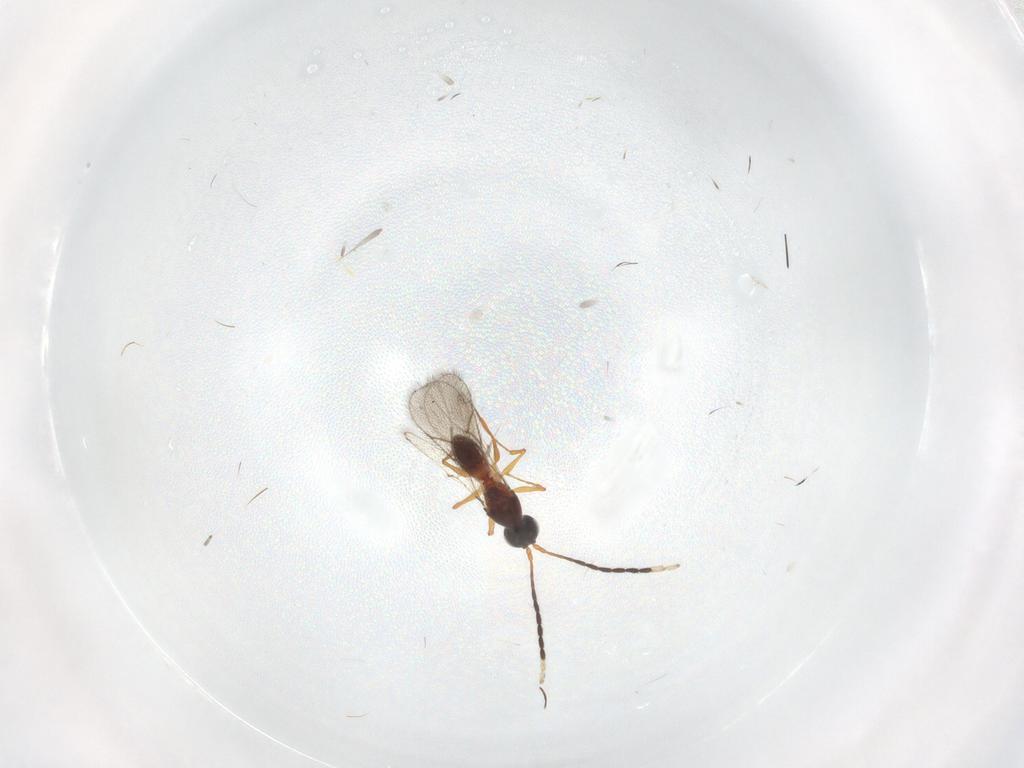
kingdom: Animalia
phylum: Arthropoda
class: Insecta
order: Hymenoptera
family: Figitidae
